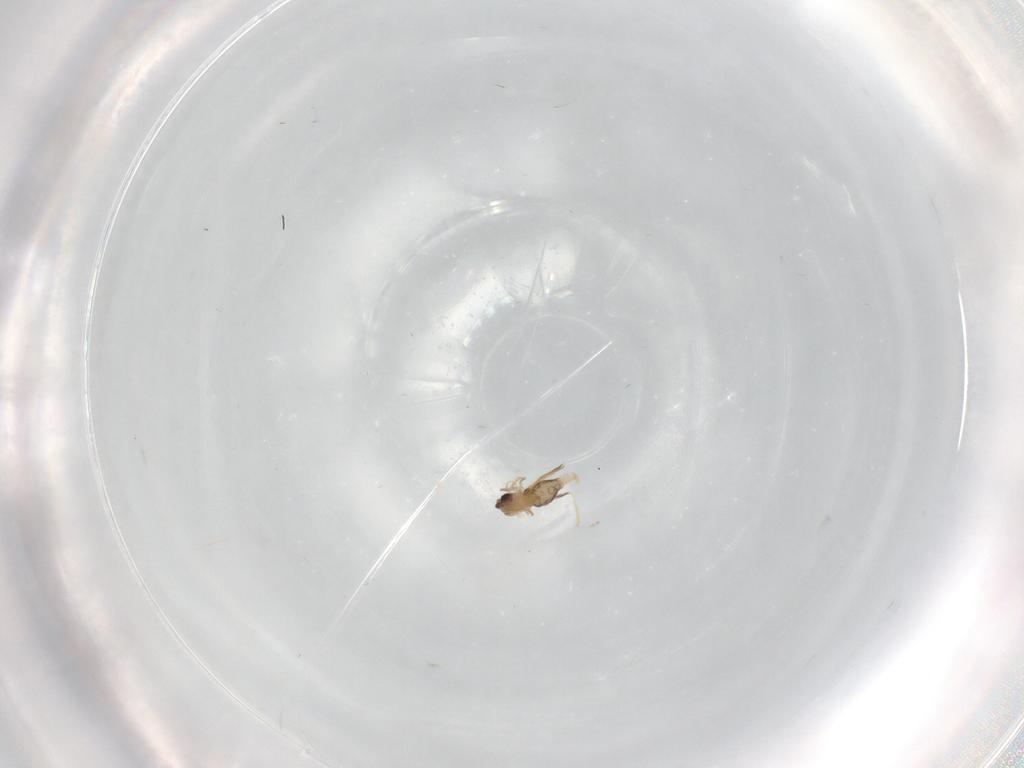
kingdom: Animalia
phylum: Arthropoda
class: Insecta
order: Diptera
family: Cecidomyiidae
